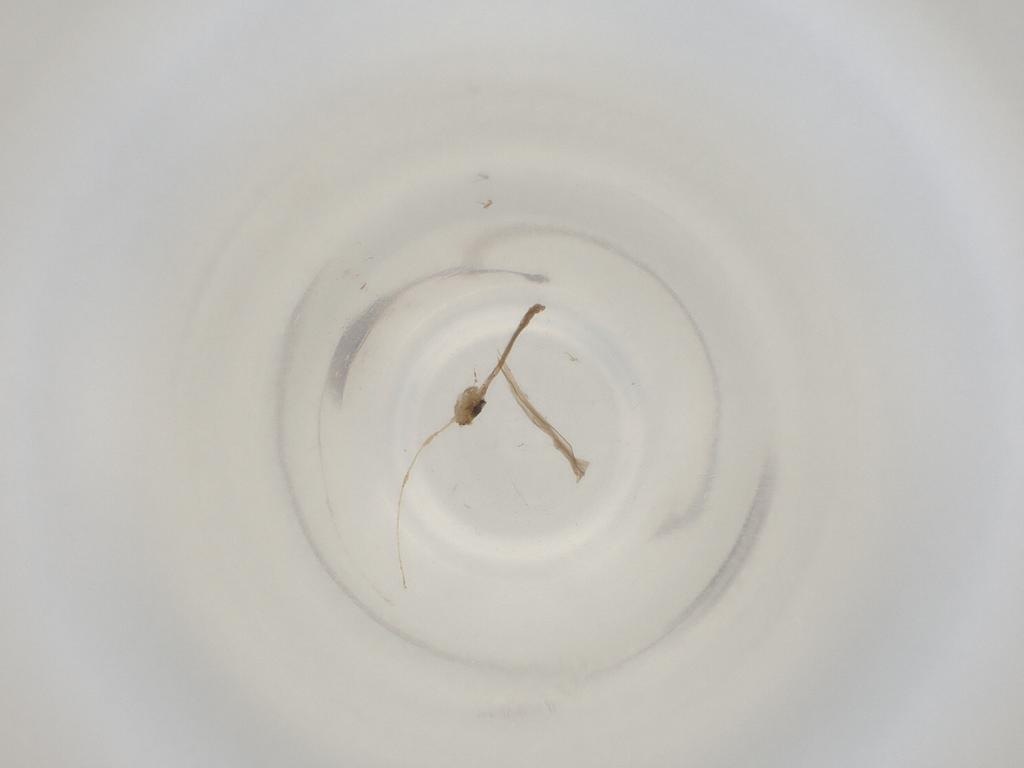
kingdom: Animalia
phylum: Arthropoda
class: Insecta
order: Diptera
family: Cecidomyiidae
